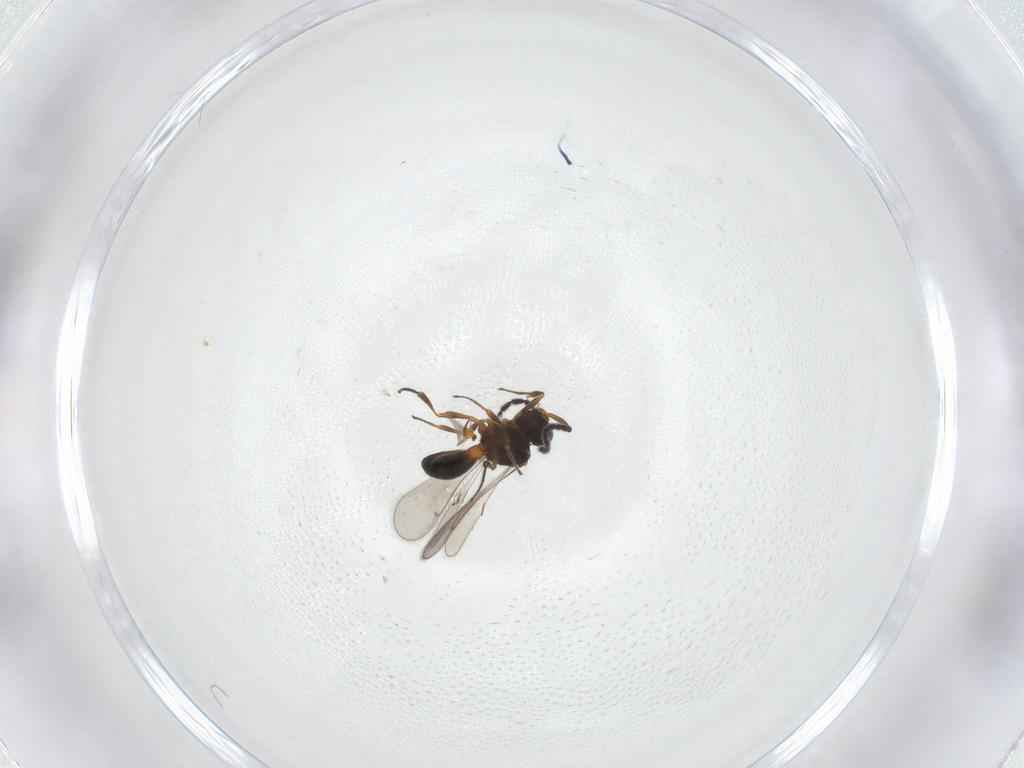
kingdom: Animalia
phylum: Arthropoda
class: Insecta
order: Hymenoptera
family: Scelionidae
